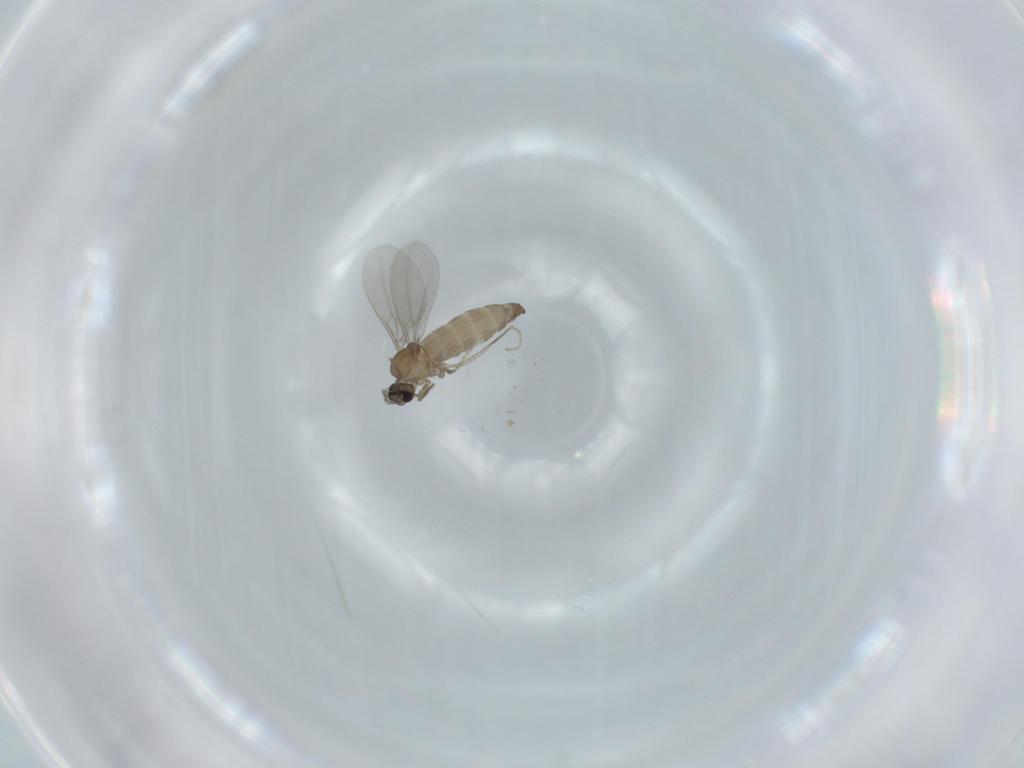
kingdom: Animalia
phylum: Arthropoda
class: Insecta
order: Diptera
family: Cecidomyiidae
